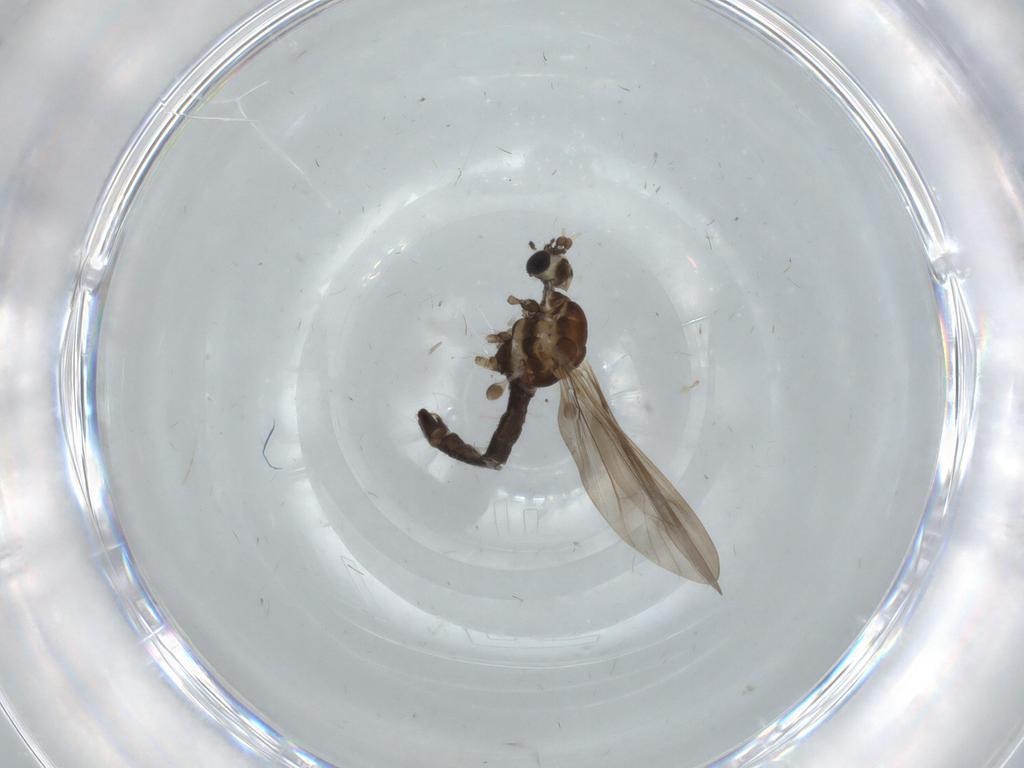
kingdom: Animalia
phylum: Arthropoda
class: Insecta
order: Diptera
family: Limoniidae
